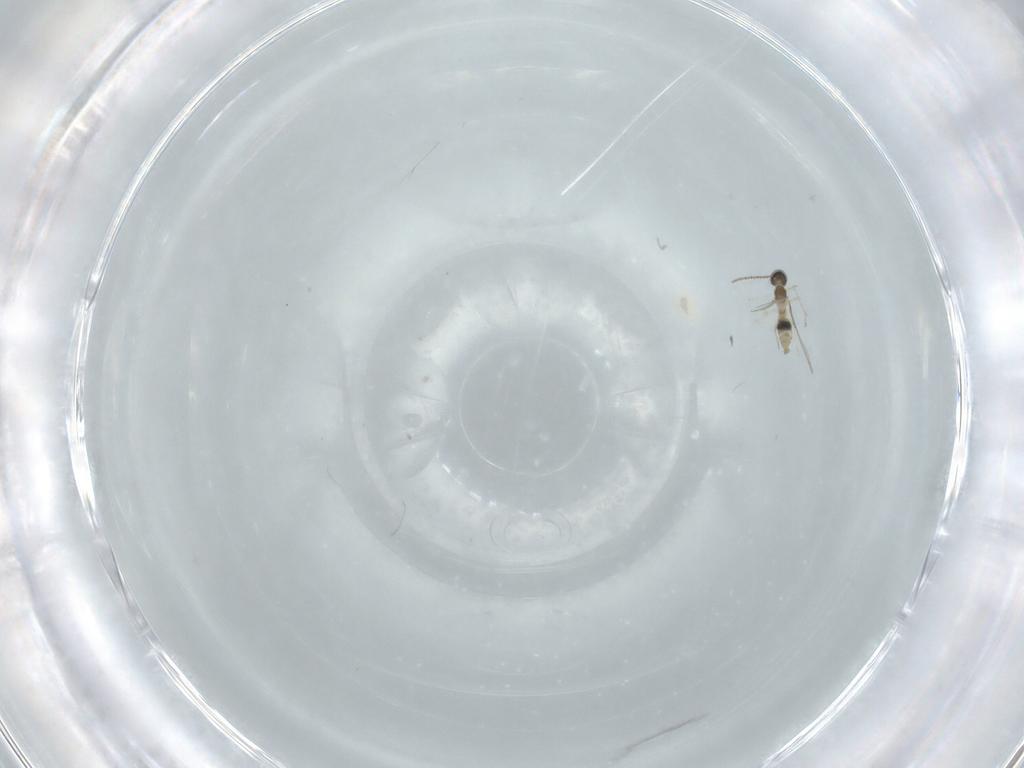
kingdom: Animalia
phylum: Arthropoda
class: Insecta
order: Diptera
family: Cecidomyiidae
